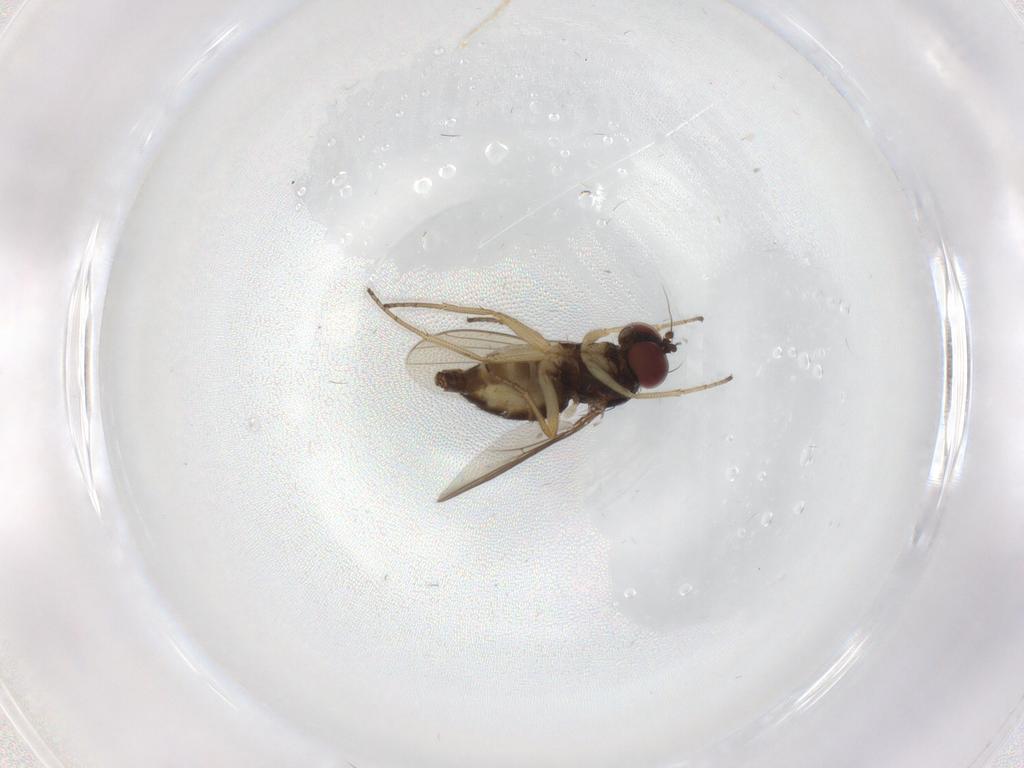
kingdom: Animalia
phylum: Arthropoda
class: Insecta
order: Diptera
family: Dolichopodidae
